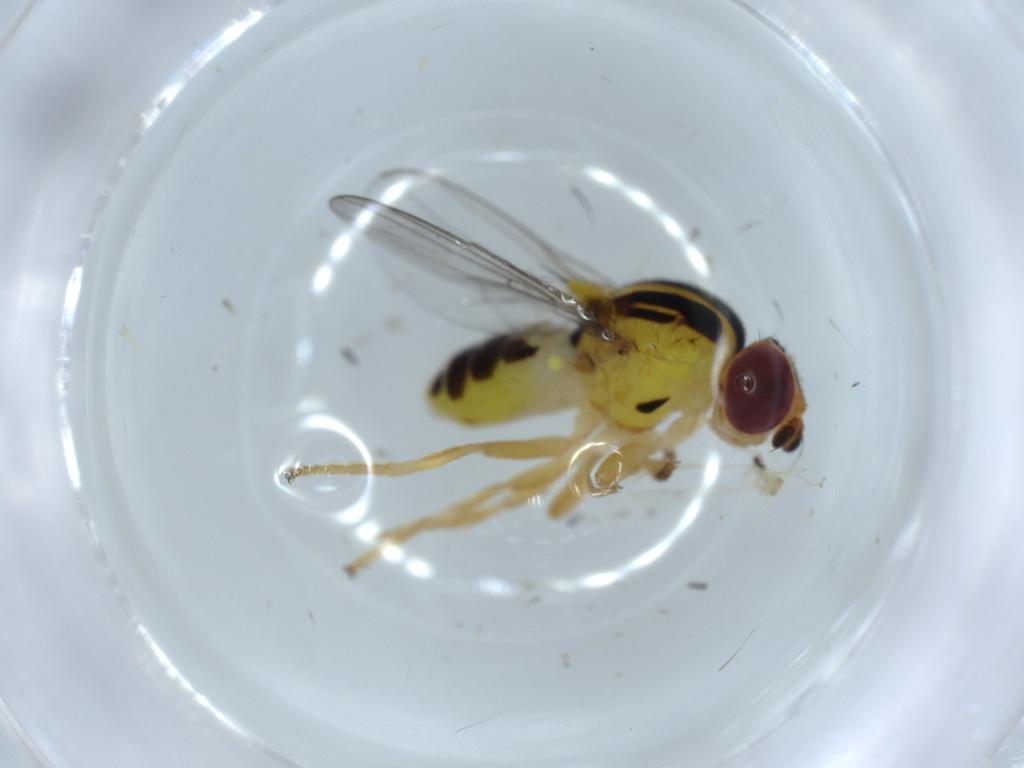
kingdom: Animalia
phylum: Arthropoda
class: Insecta
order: Diptera
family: Chloropidae
